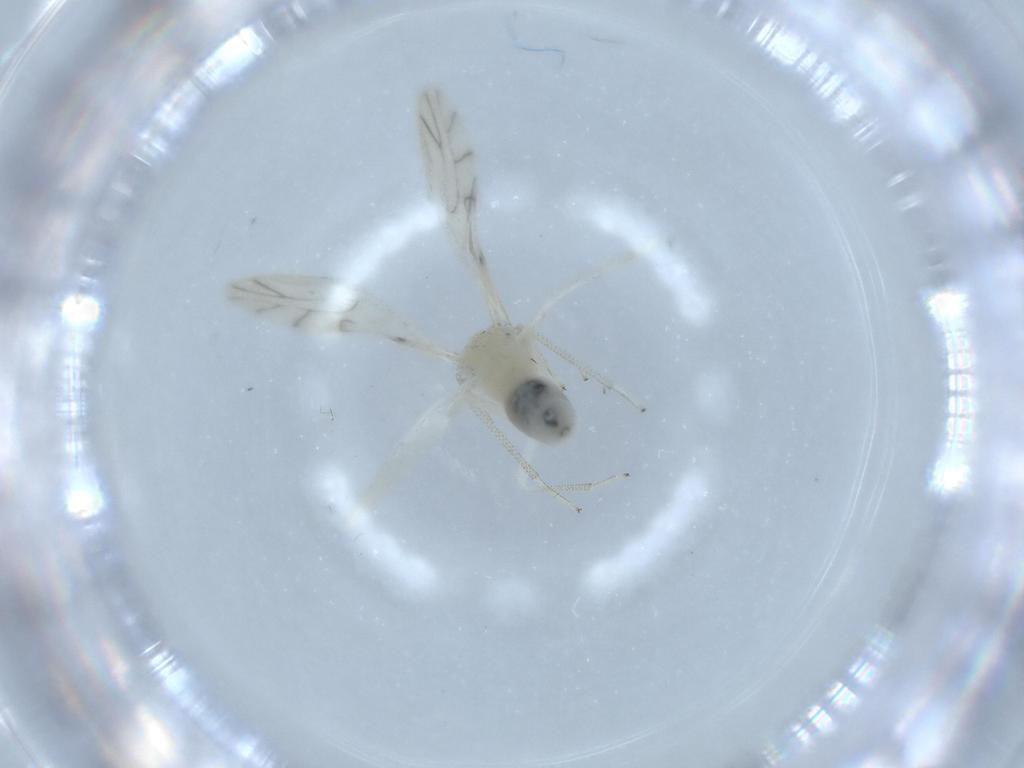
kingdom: Animalia
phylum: Arthropoda
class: Insecta
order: Psocodea
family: Caeciliusidae
